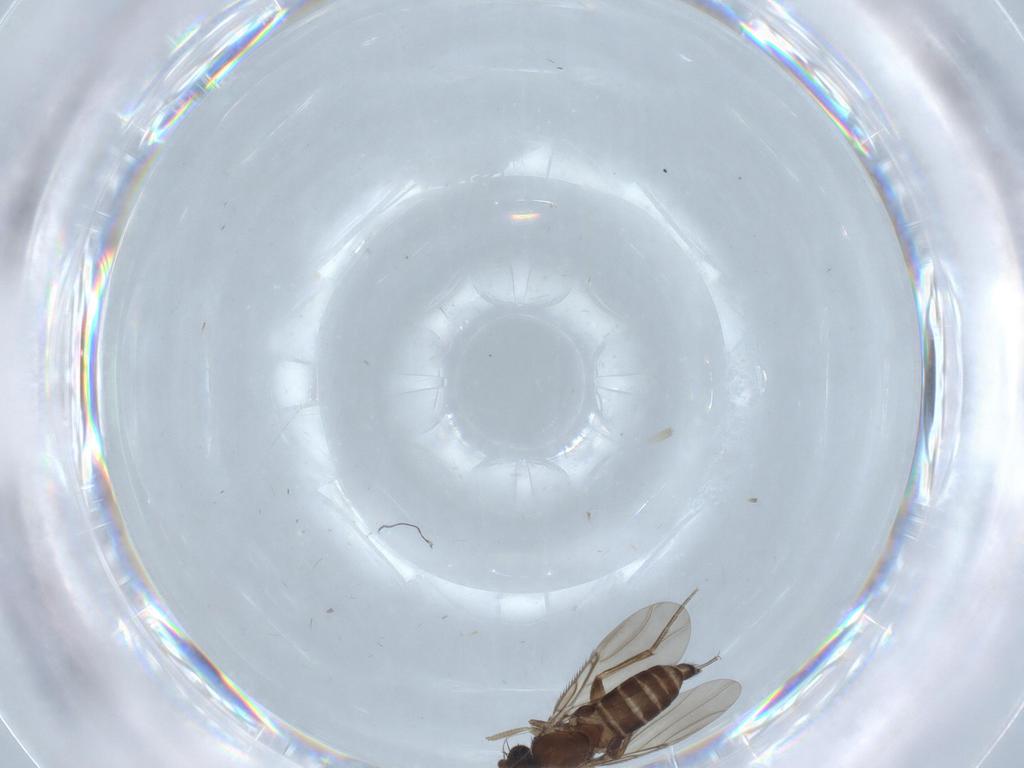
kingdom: Animalia
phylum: Arthropoda
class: Insecta
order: Diptera
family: Phoridae
